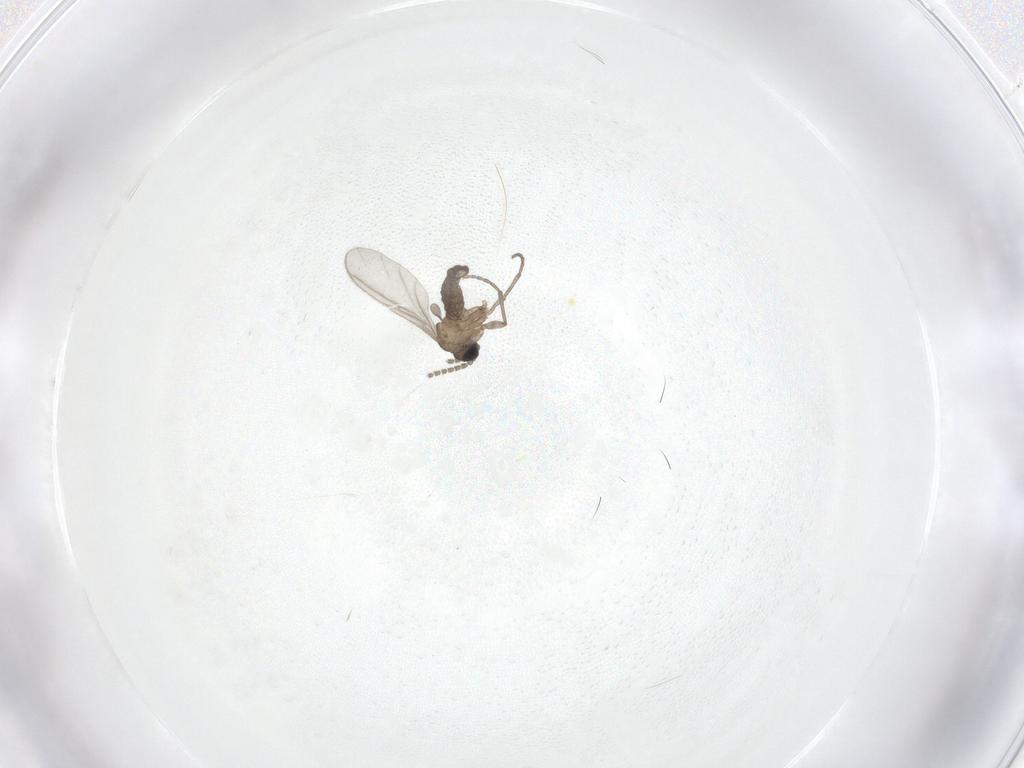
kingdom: Animalia
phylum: Arthropoda
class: Insecta
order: Diptera
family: Sciaridae
